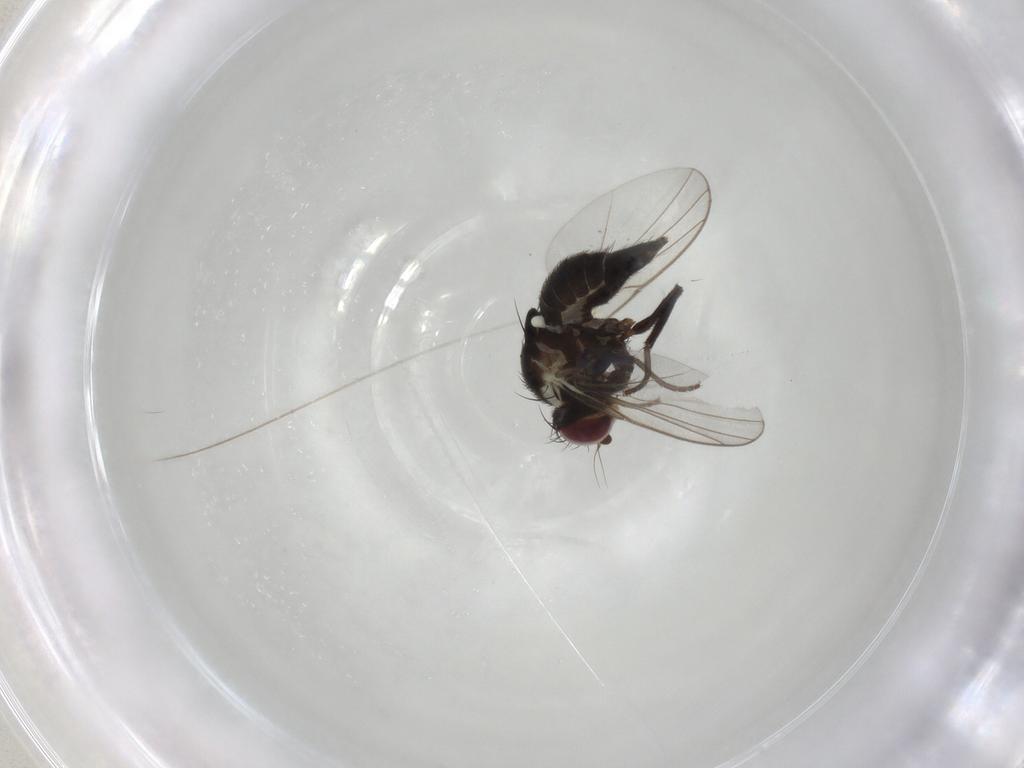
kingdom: Animalia
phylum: Arthropoda
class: Insecta
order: Diptera
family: Agromyzidae
